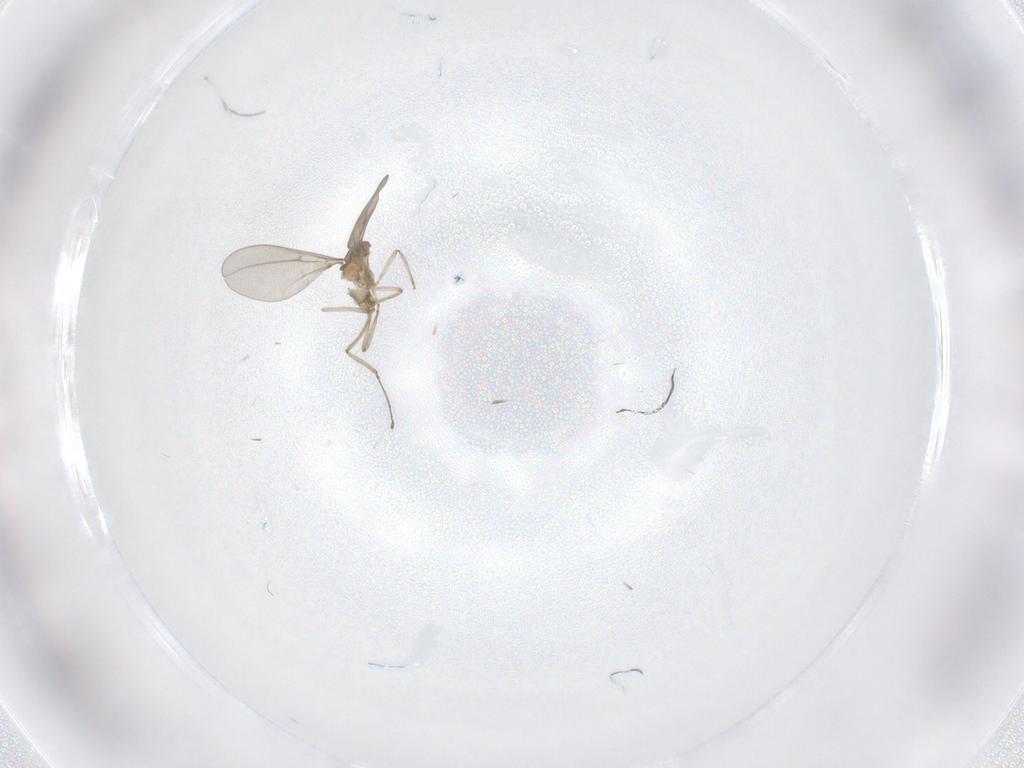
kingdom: Animalia
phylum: Arthropoda
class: Insecta
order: Diptera
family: Cecidomyiidae
